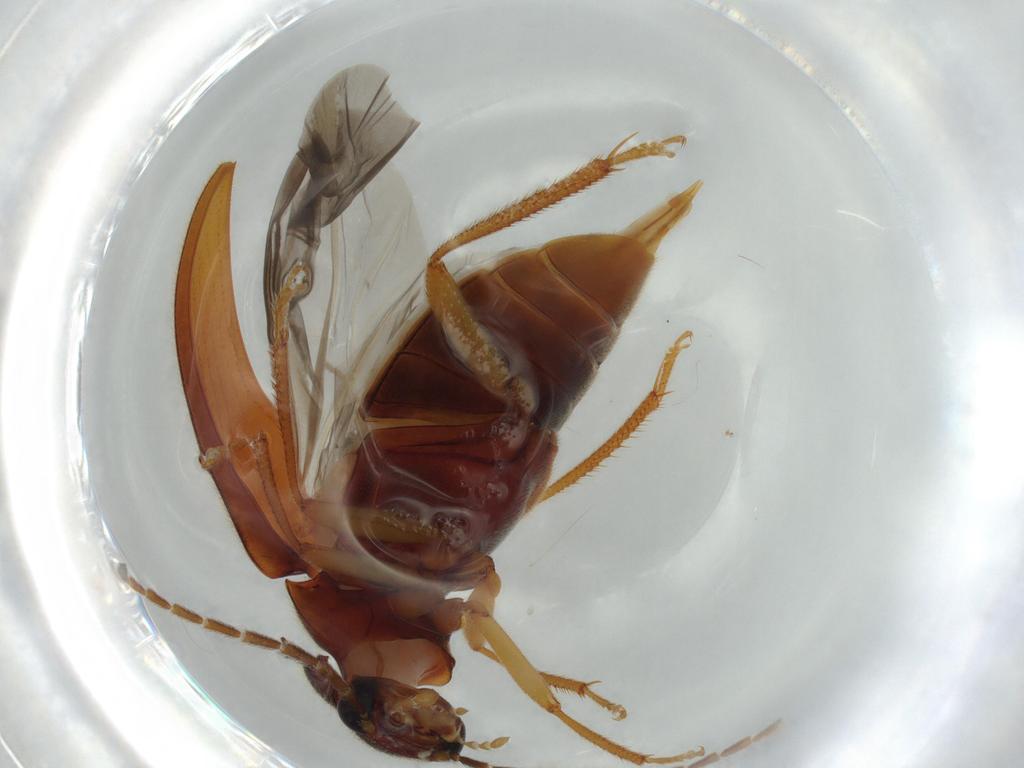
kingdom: Animalia
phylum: Arthropoda
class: Insecta
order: Coleoptera
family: Ptilodactylidae
